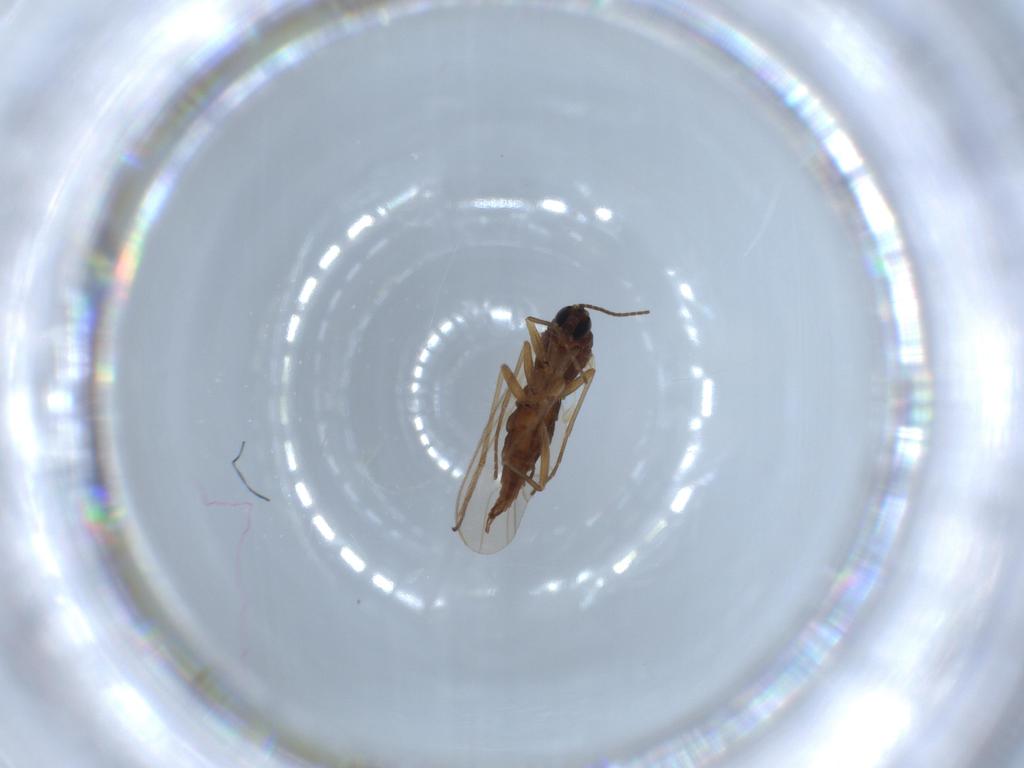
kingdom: Animalia
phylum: Arthropoda
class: Insecta
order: Diptera
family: Sciaridae
